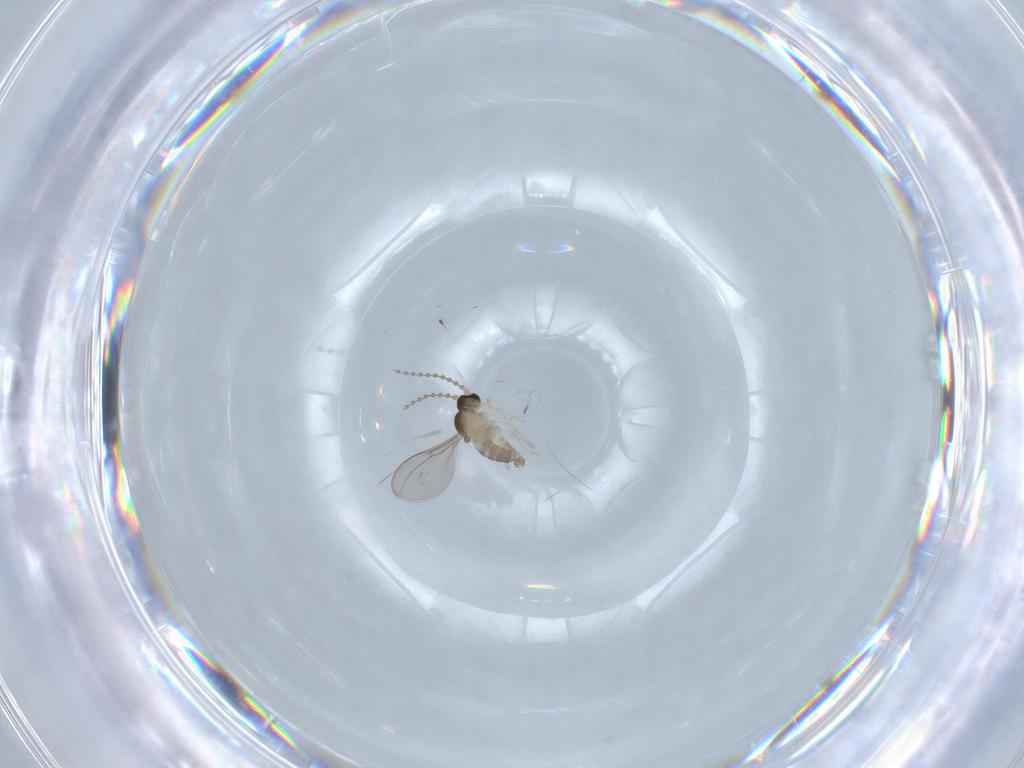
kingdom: Animalia
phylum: Arthropoda
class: Insecta
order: Diptera
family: Cecidomyiidae
